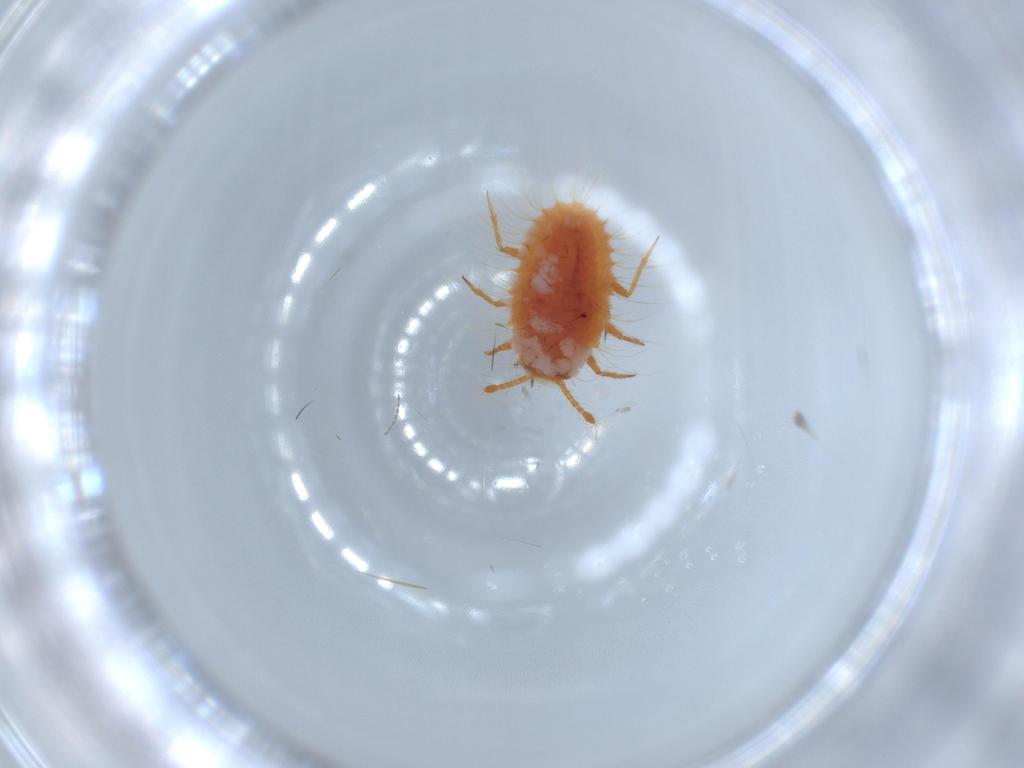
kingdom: Animalia
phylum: Arthropoda
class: Insecta
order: Hemiptera
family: Coccoidea_incertae_sedis
